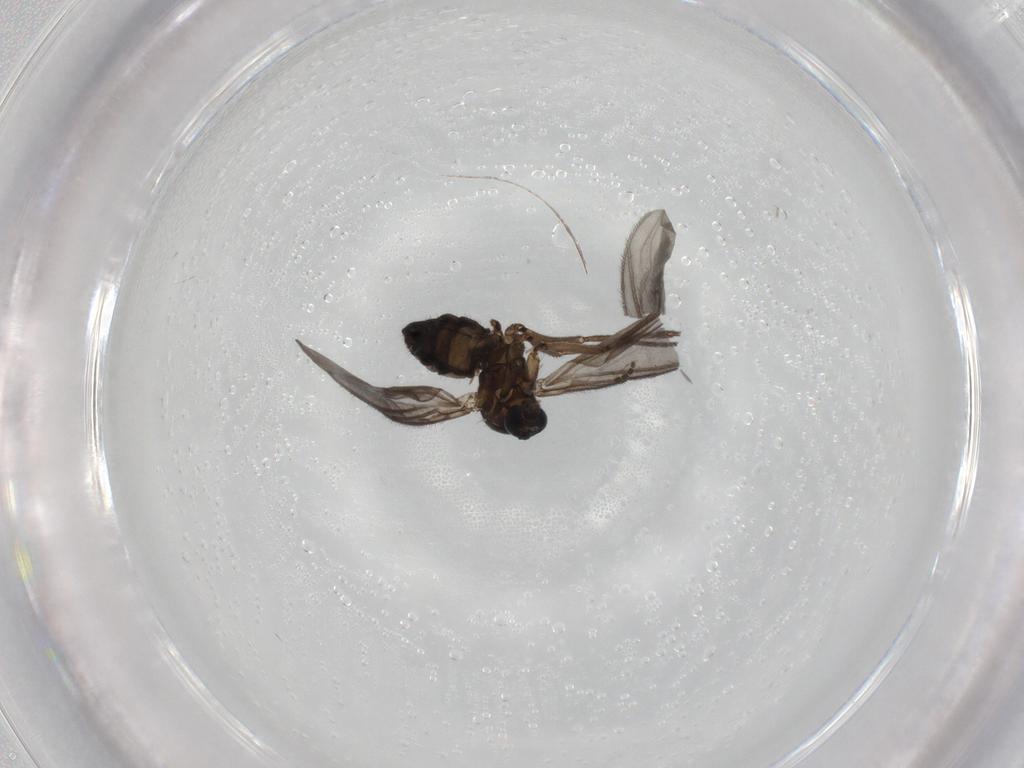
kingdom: Animalia
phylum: Arthropoda
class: Insecta
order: Diptera
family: Sciaridae
